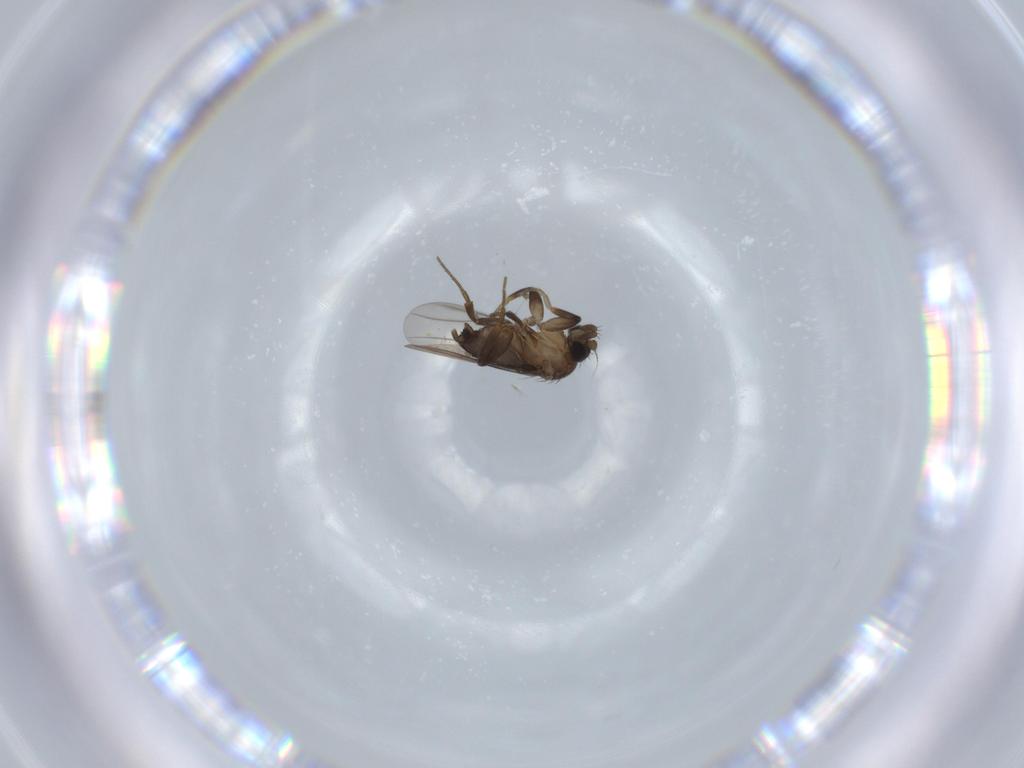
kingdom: Animalia
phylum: Arthropoda
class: Insecta
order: Diptera
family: Phoridae
